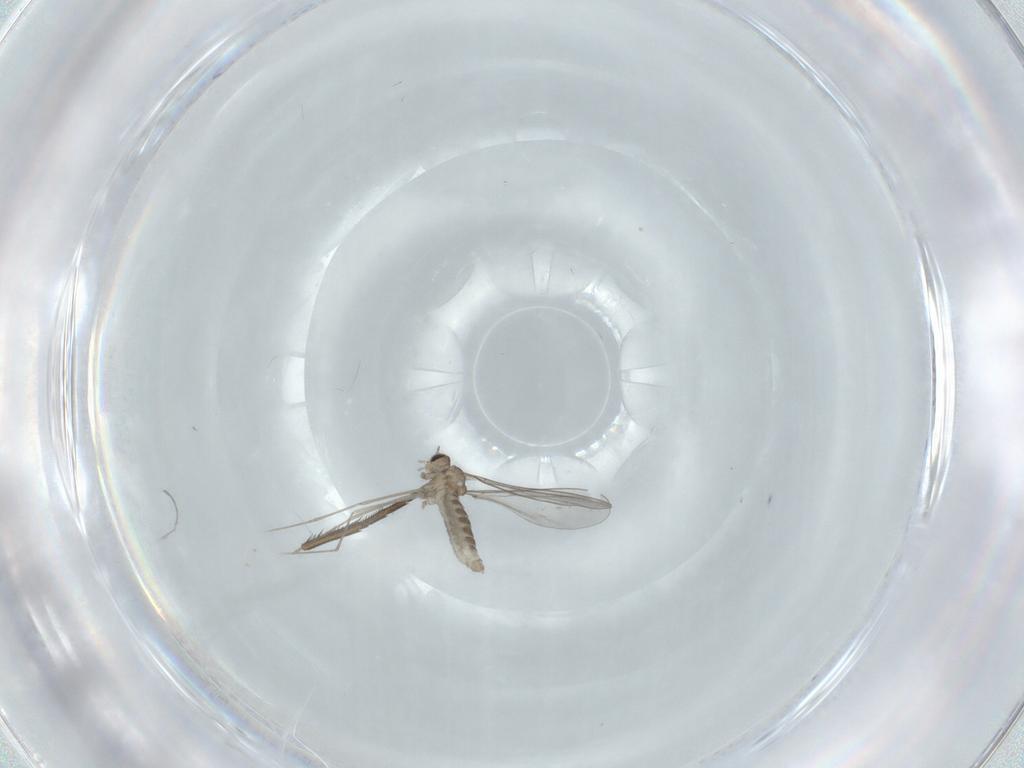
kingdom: Animalia
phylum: Arthropoda
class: Insecta
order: Diptera
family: Cecidomyiidae
